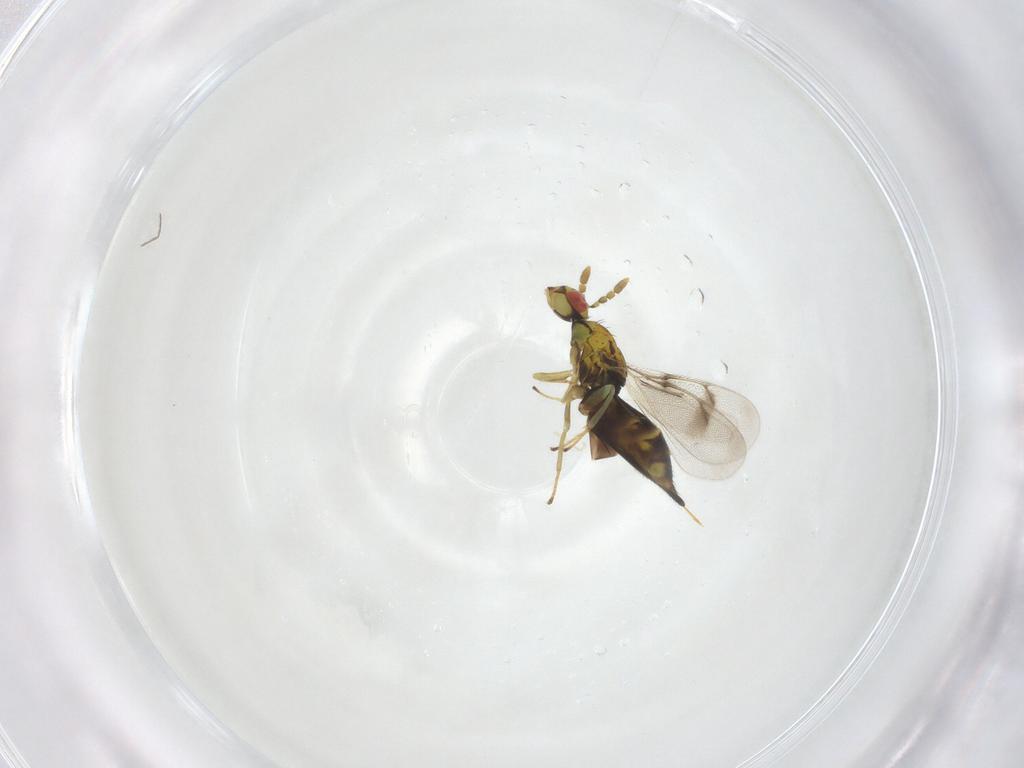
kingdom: Animalia
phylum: Arthropoda
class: Insecta
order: Hymenoptera
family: Eulophidae
